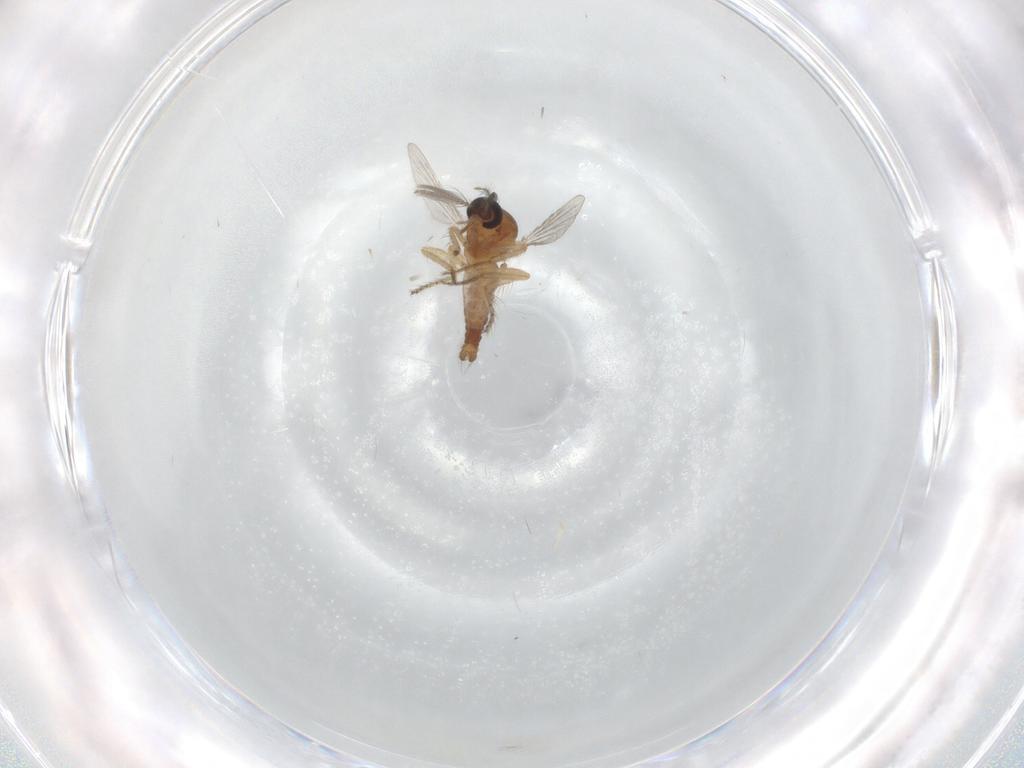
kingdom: Animalia
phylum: Arthropoda
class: Insecta
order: Diptera
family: Ceratopogonidae
